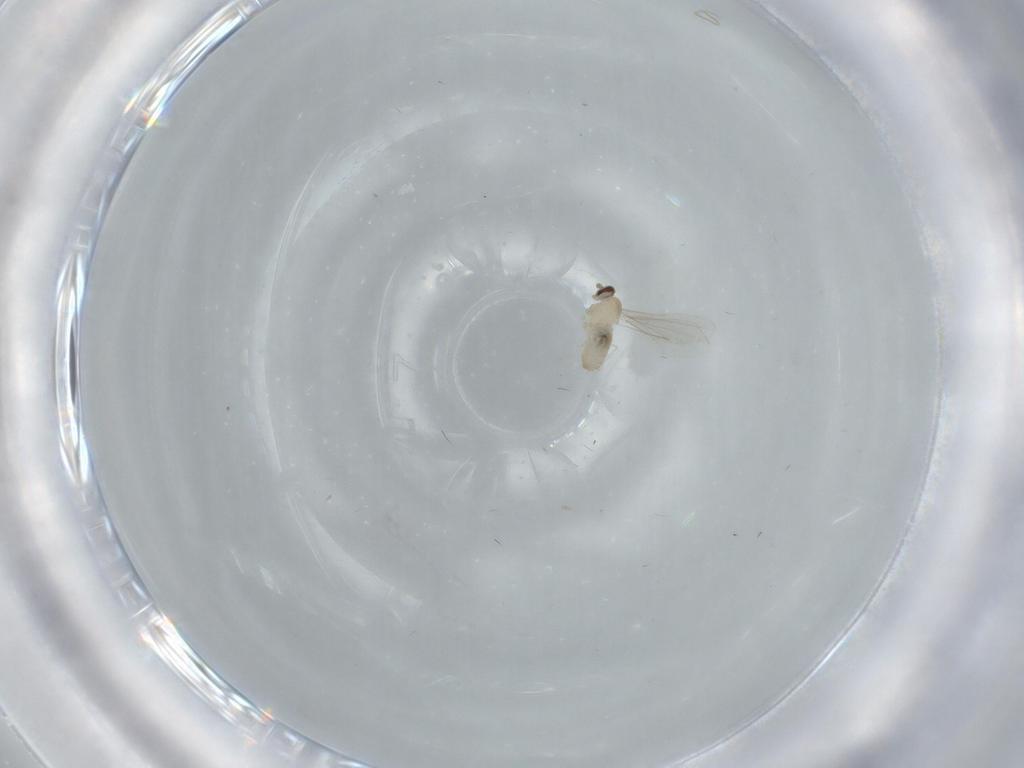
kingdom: Animalia
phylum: Arthropoda
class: Insecta
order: Diptera
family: Cecidomyiidae
